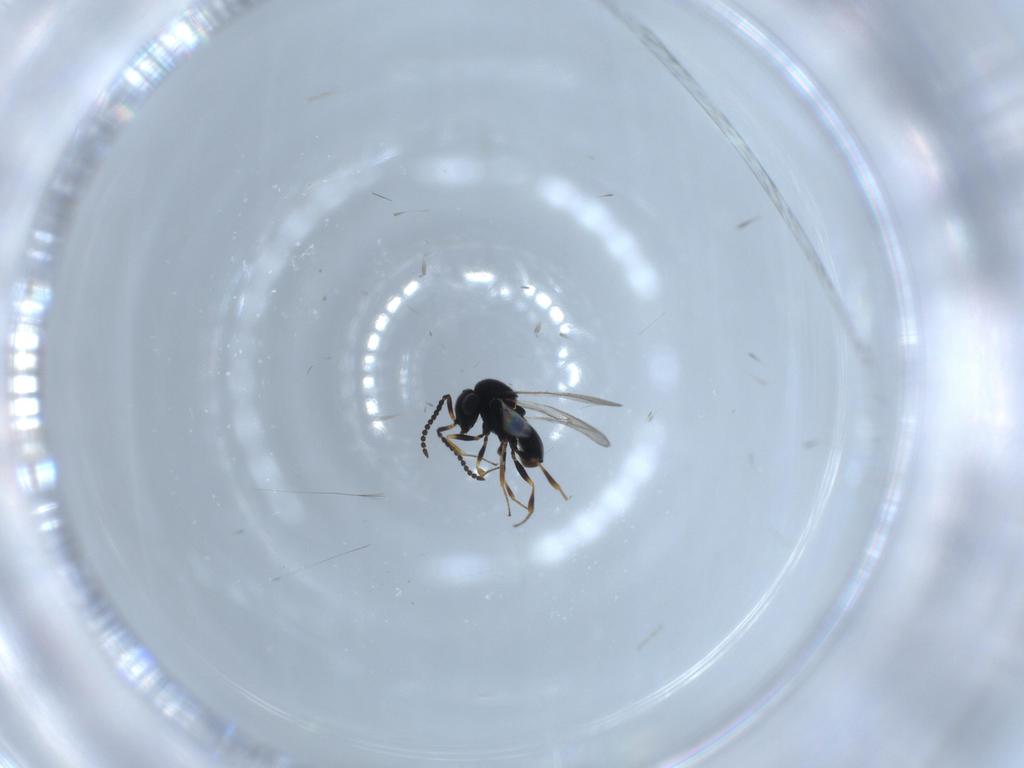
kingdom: Animalia
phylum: Arthropoda
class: Insecta
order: Hymenoptera
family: Scelionidae
